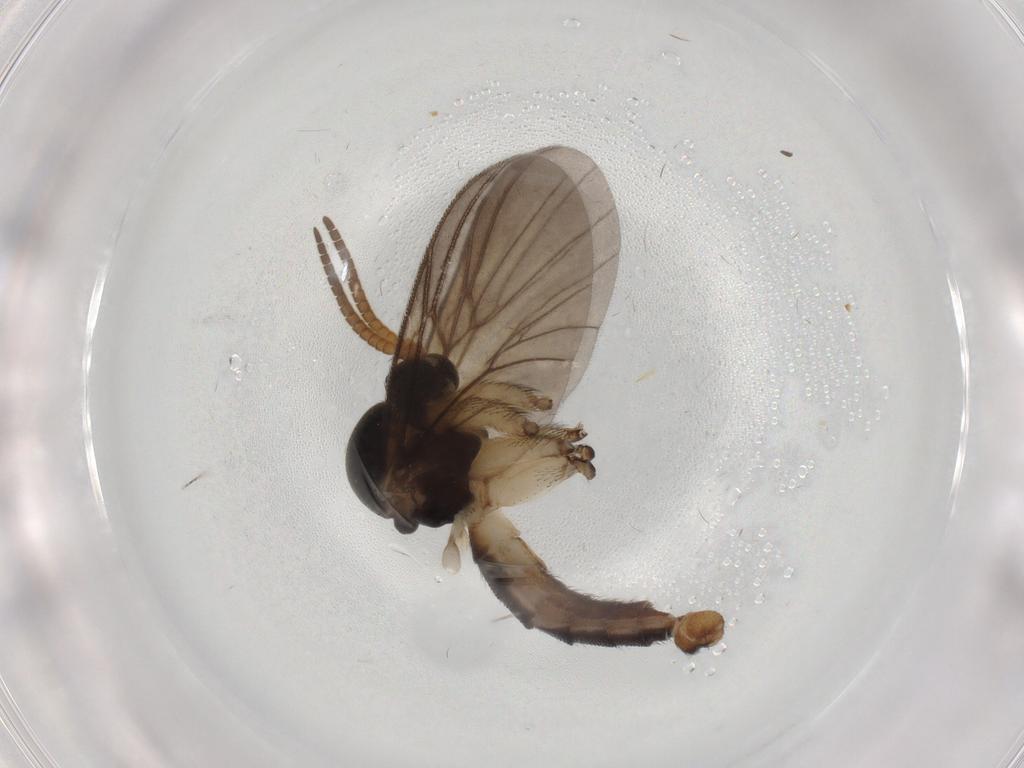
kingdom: Animalia
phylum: Arthropoda
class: Insecta
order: Diptera
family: Mycetophilidae
